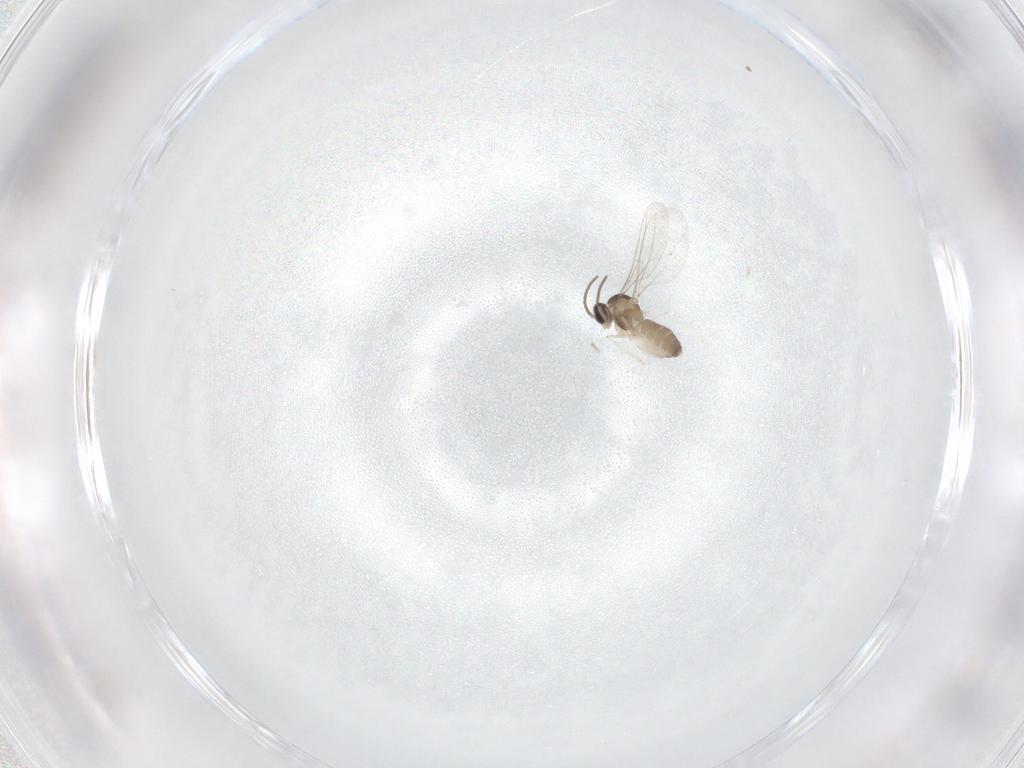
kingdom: Animalia
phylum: Arthropoda
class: Insecta
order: Diptera
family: Cecidomyiidae
